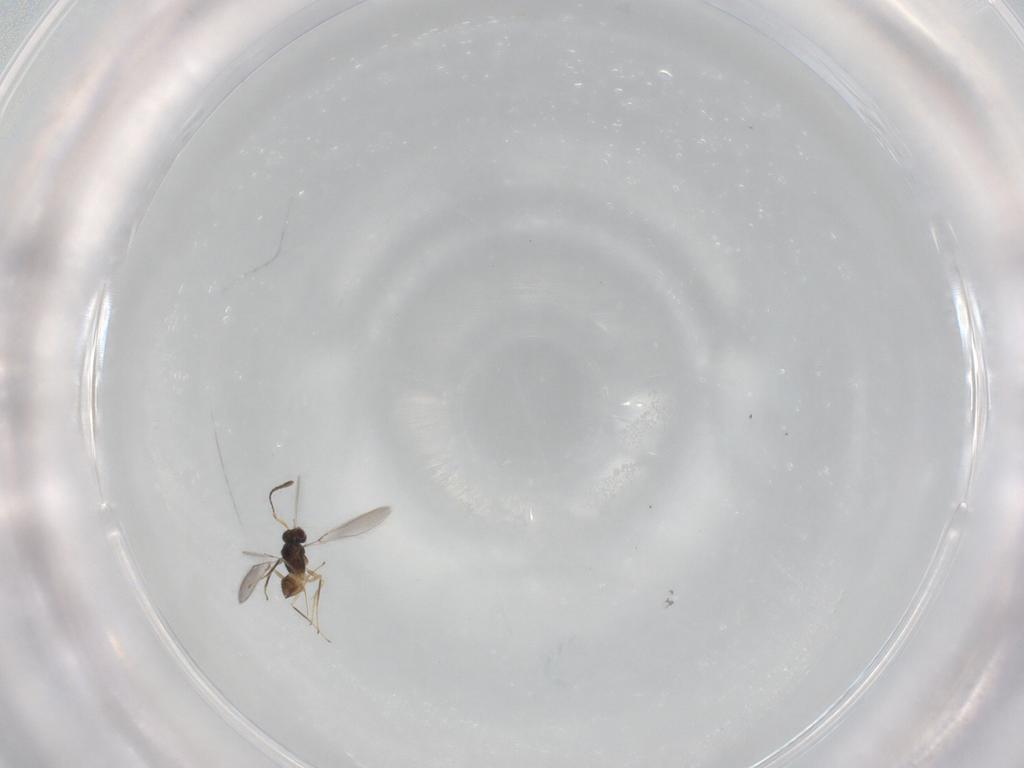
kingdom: Animalia
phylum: Arthropoda
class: Insecta
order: Hymenoptera
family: Mymaridae
